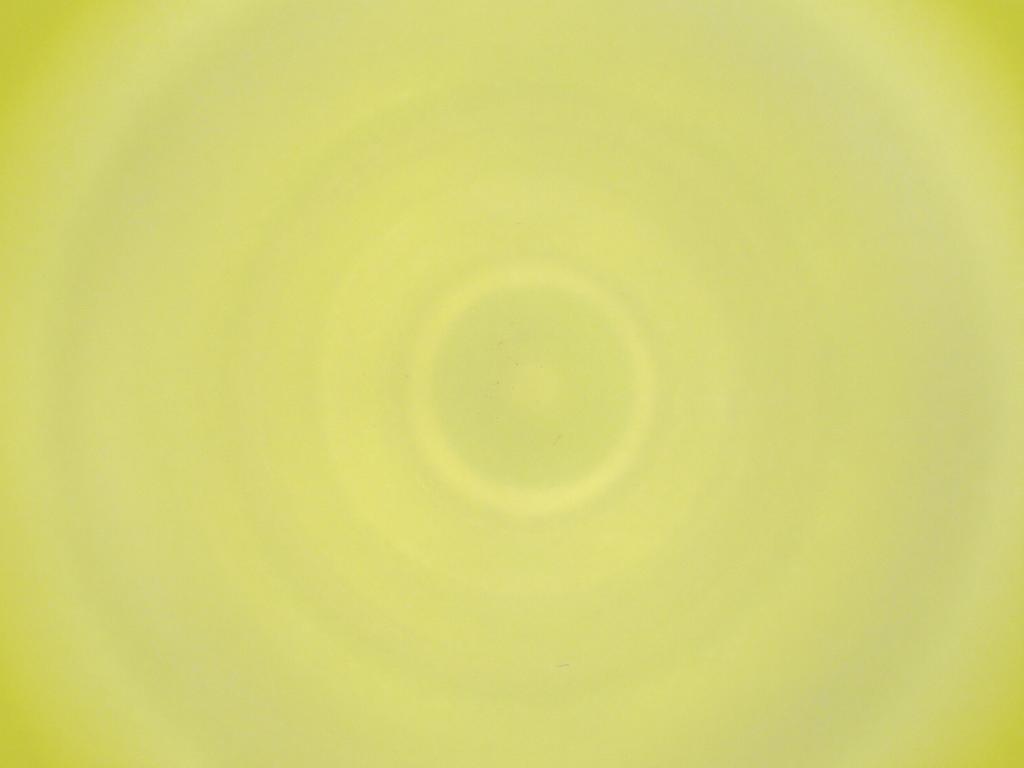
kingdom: Animalia
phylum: Arthropoda
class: Insecta
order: Diptera
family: Cecidomyiidae
